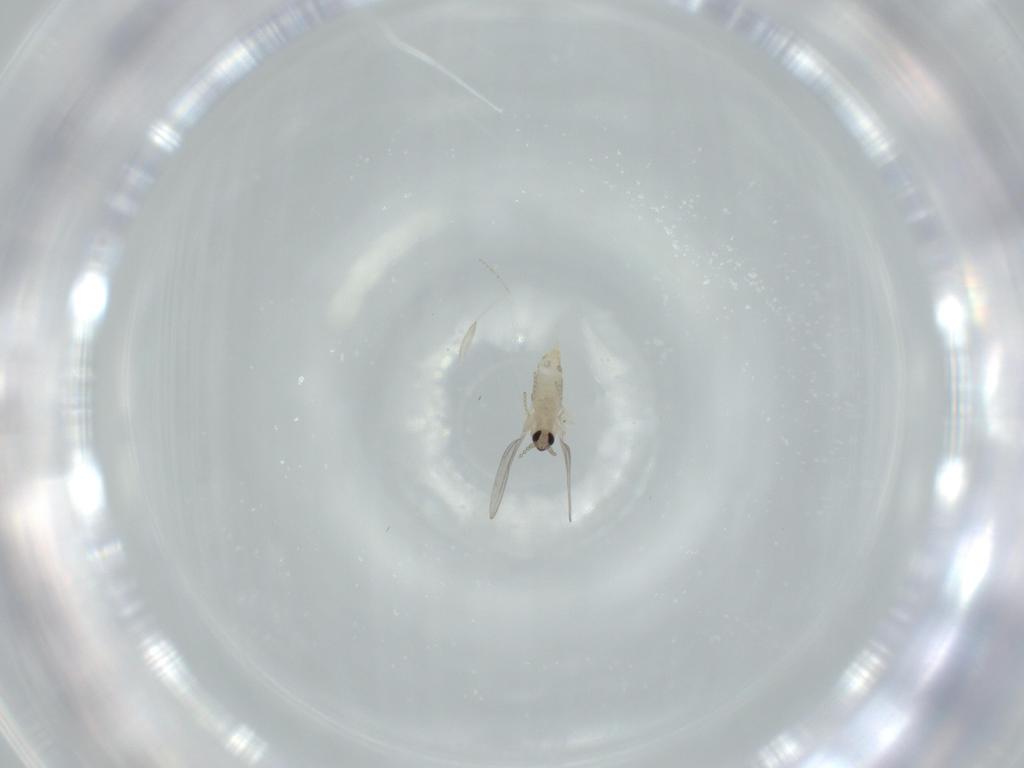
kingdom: Animalia
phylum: Arthropoda
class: Insecta
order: Diptera
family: Cecidomyiidae
